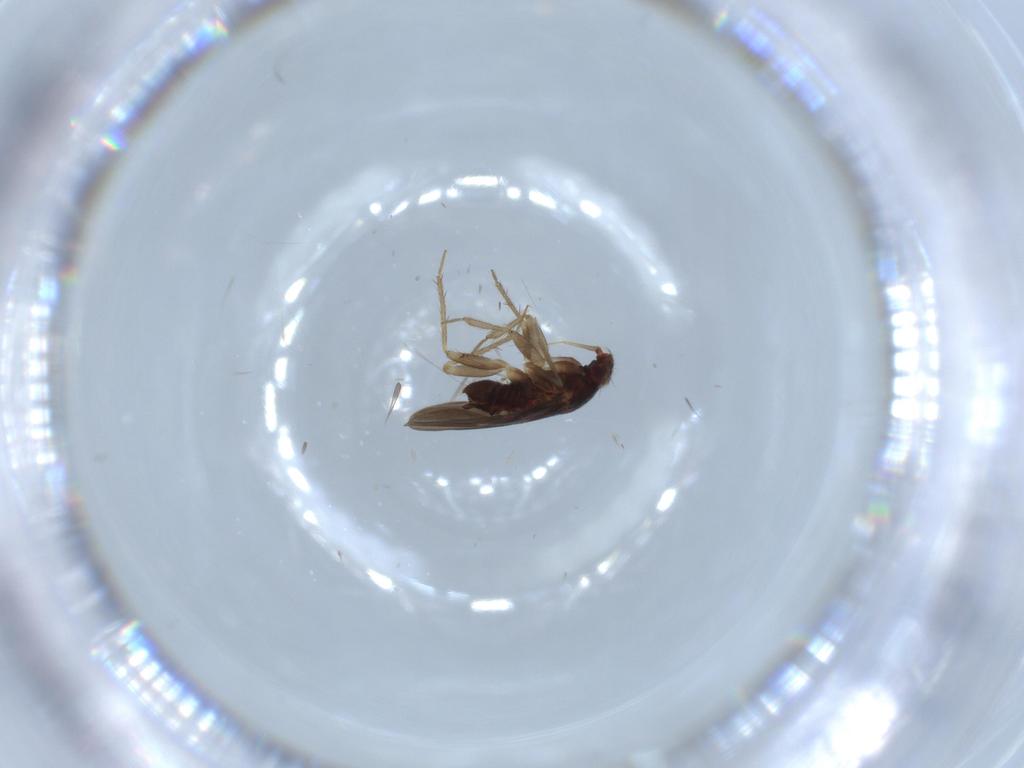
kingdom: Animalia
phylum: Arthropoda
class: Insecta
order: Hemiptera
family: Ceratocombidae
